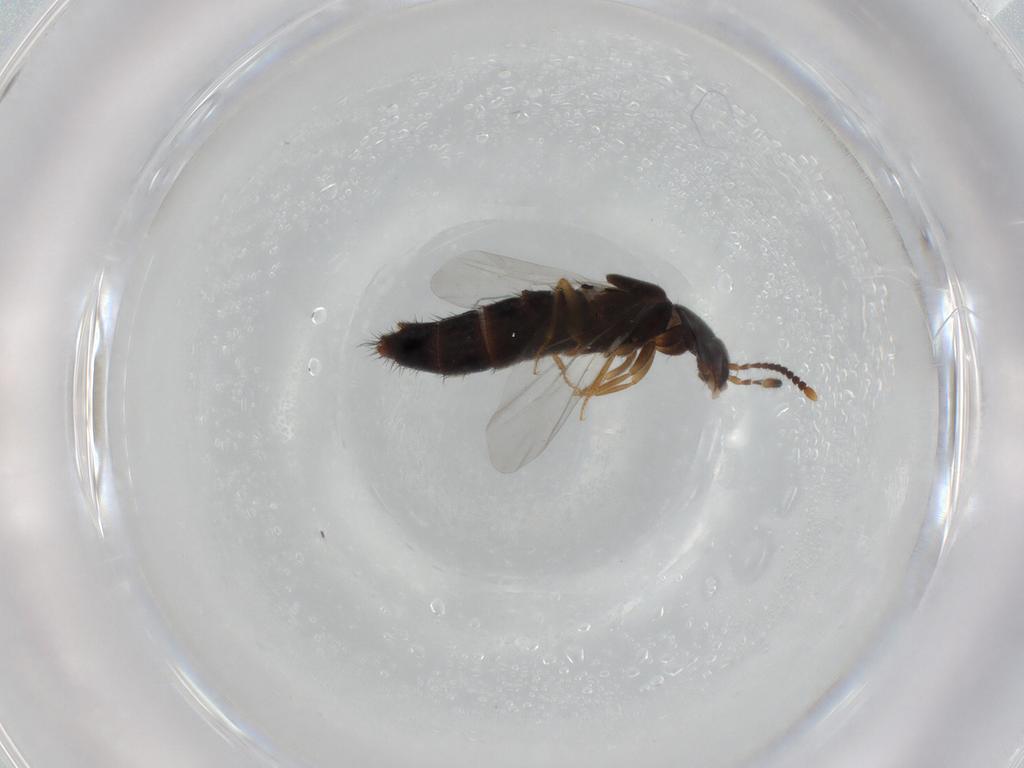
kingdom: Animalia
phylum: Arthropoda
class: Insecta
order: Coleoptera
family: Staphylinidae
